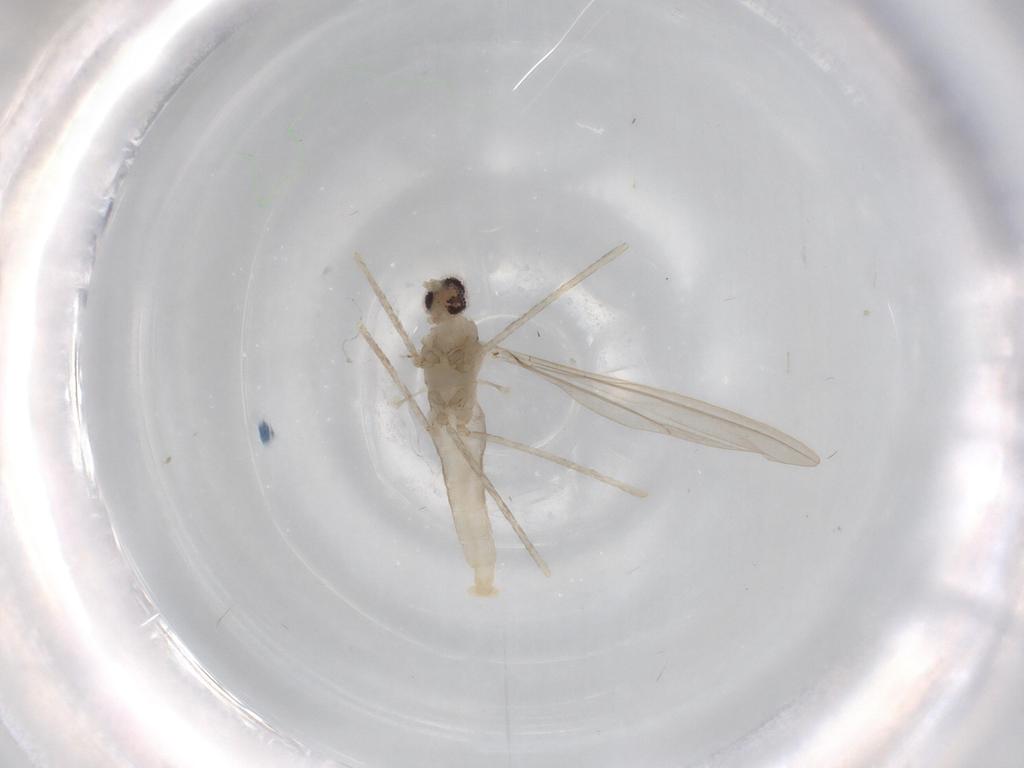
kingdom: Animalia
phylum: Arthropoda
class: Insecta
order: Diptera
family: Cecidomyiidae
